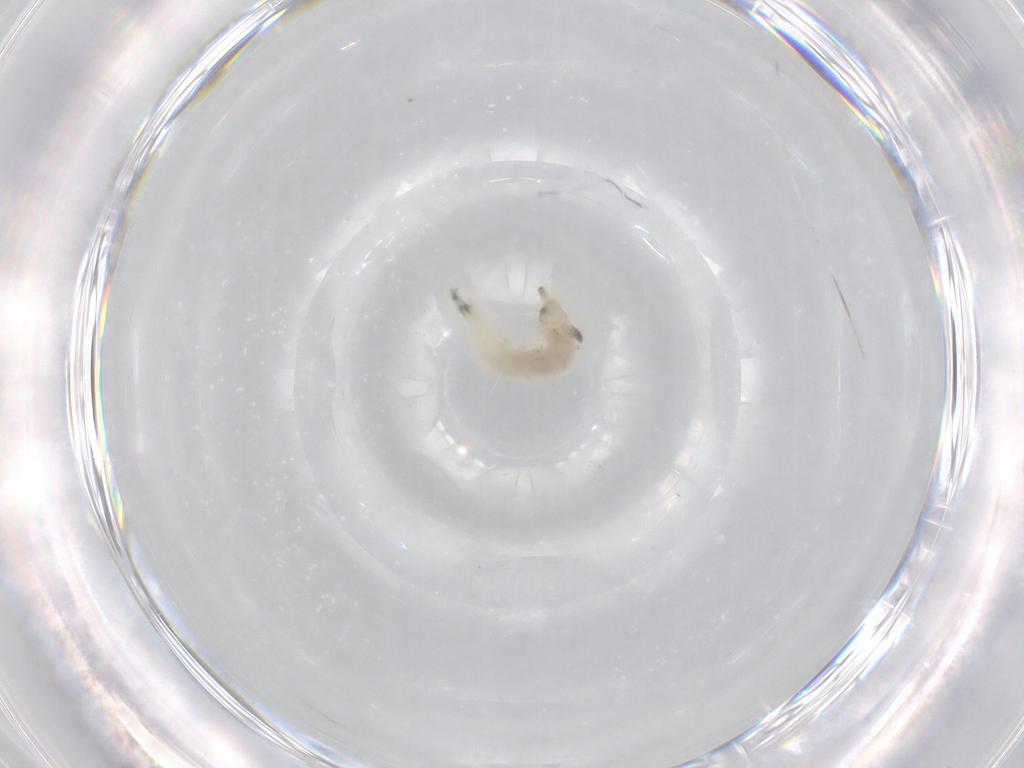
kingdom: Animalia
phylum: Arthropoda
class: Insecta
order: Diptera
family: Drosophilidae
